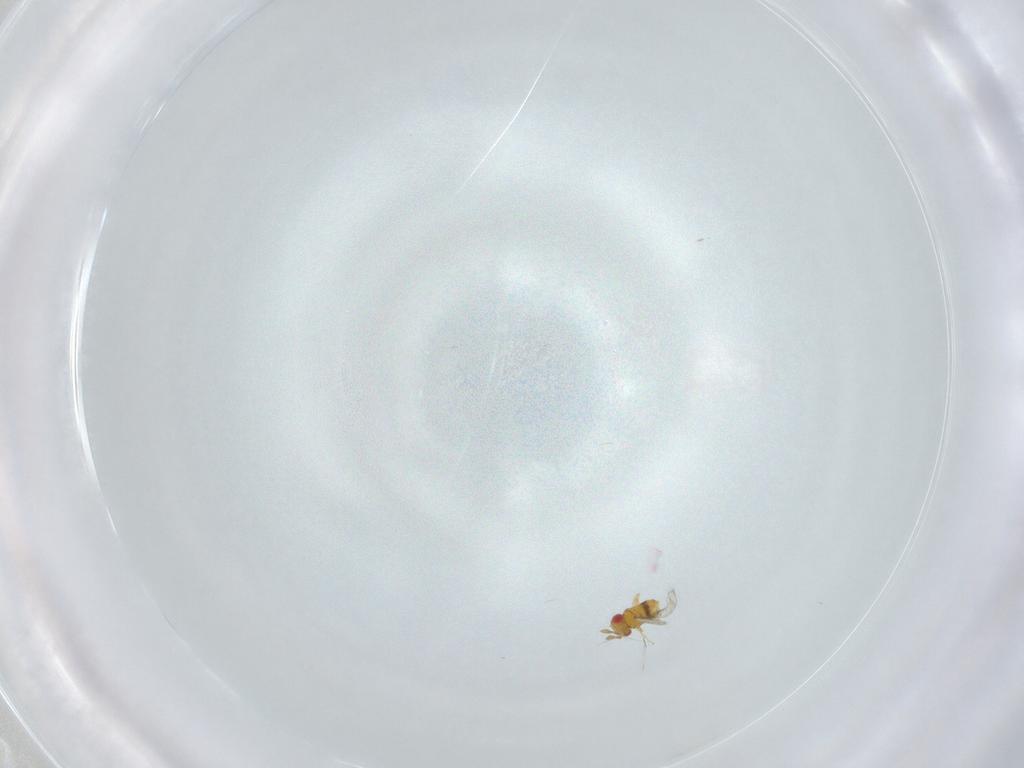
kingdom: Animalia
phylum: Arthropoda
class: Insecta
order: Hymenoptera
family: Trichogrammatidae
